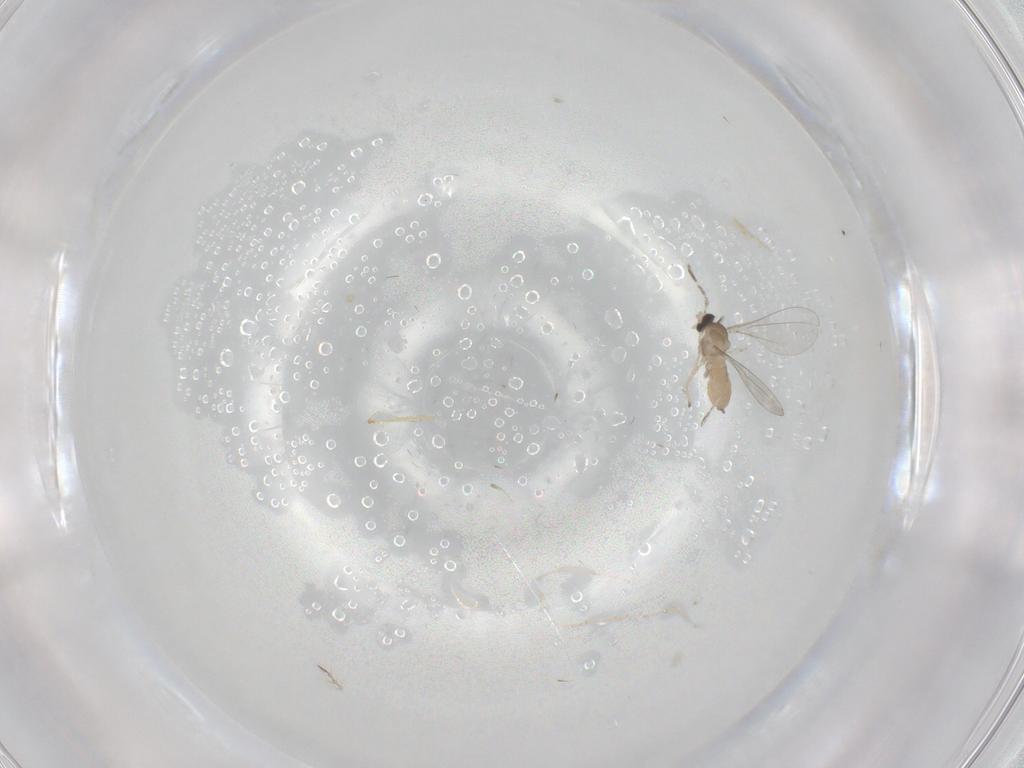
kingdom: Animalia
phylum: Arthropoda
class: Insecta
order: Diptera
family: Cecidomyiidae
